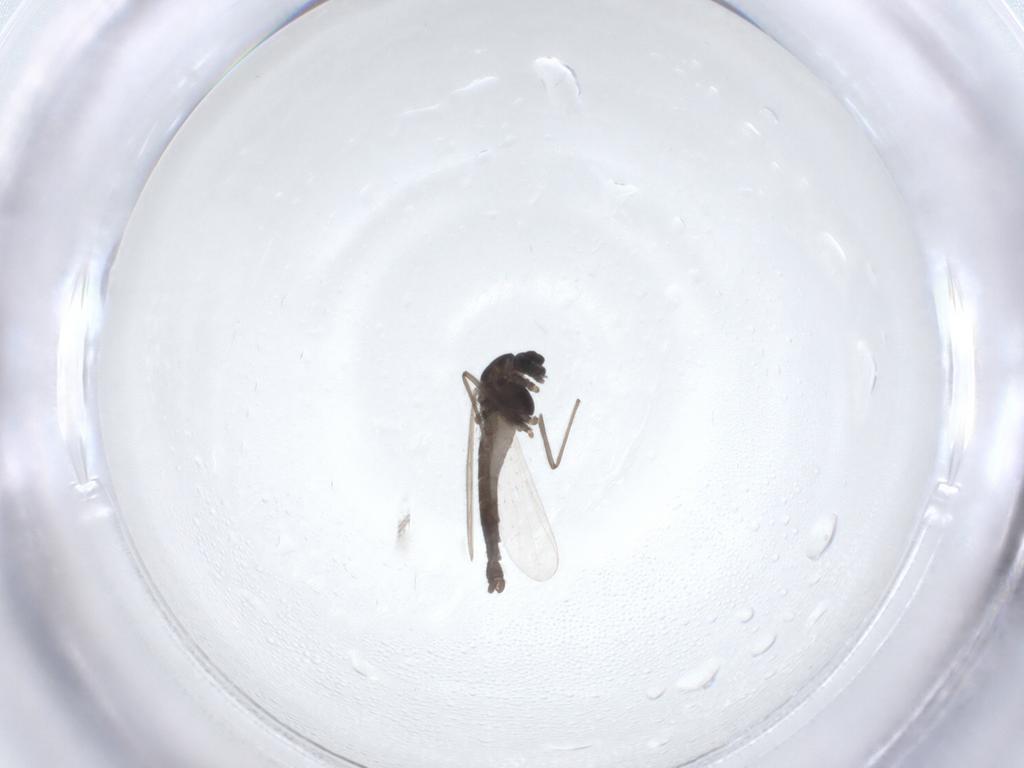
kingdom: Animalia
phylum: Arthropoda
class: Insecta
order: Diptera
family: Chironomidae
